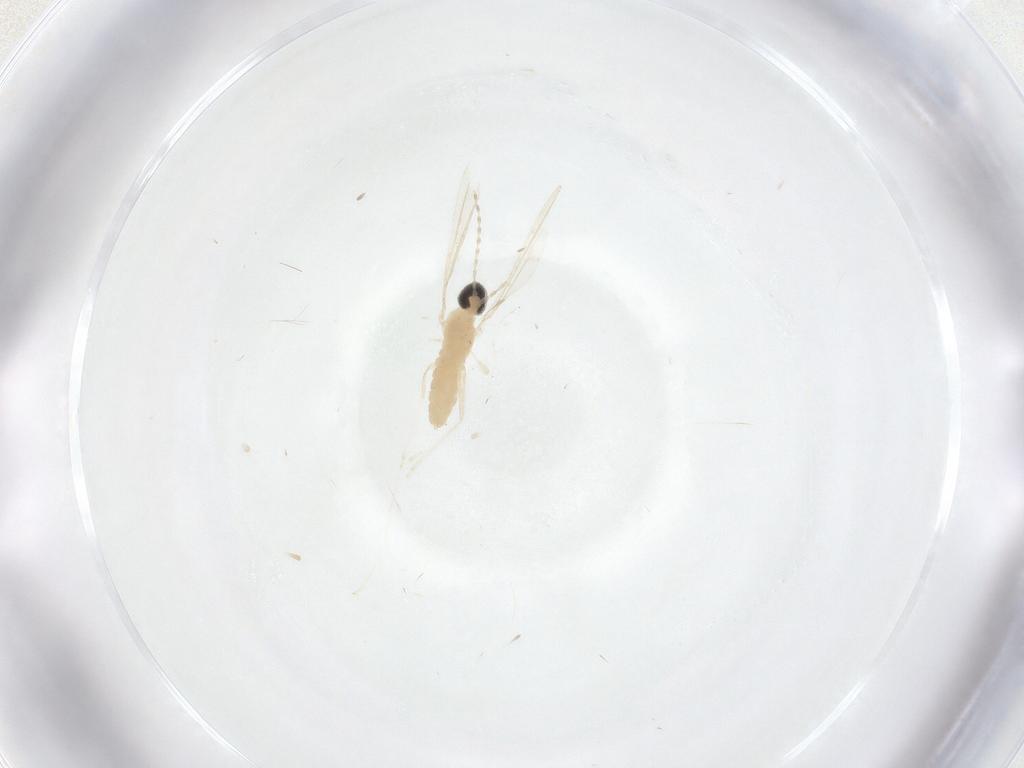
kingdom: Animalia
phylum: Arthropoda
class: Insecta
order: Diptera
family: Cecidomyiidae
